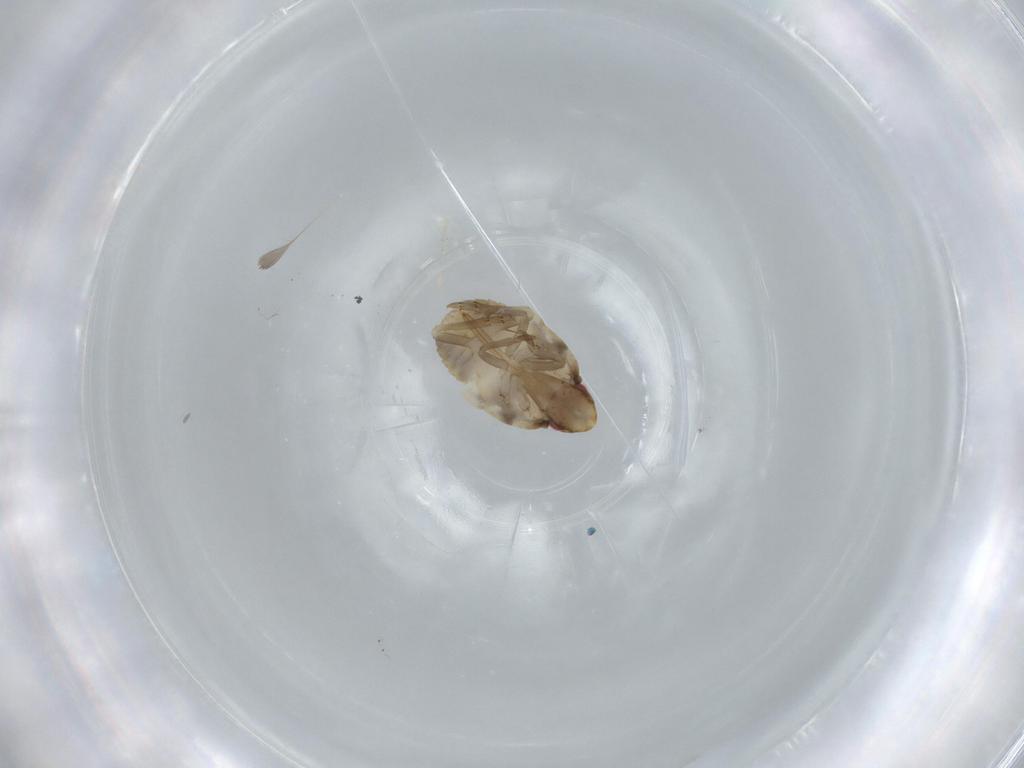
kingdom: Animalia
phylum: Arthropoda
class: Insecta
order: Hemiptera
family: Flatidae
